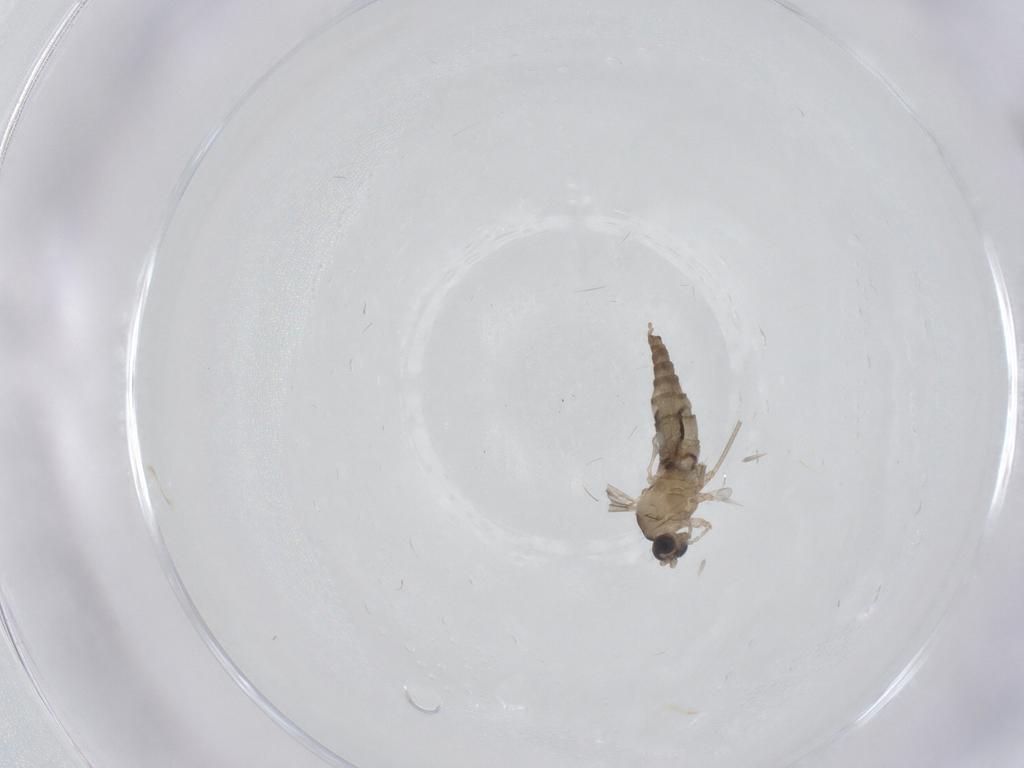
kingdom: Animalia
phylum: Arthropoda
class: Insecta
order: Diptera
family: Cecidomyiidae
